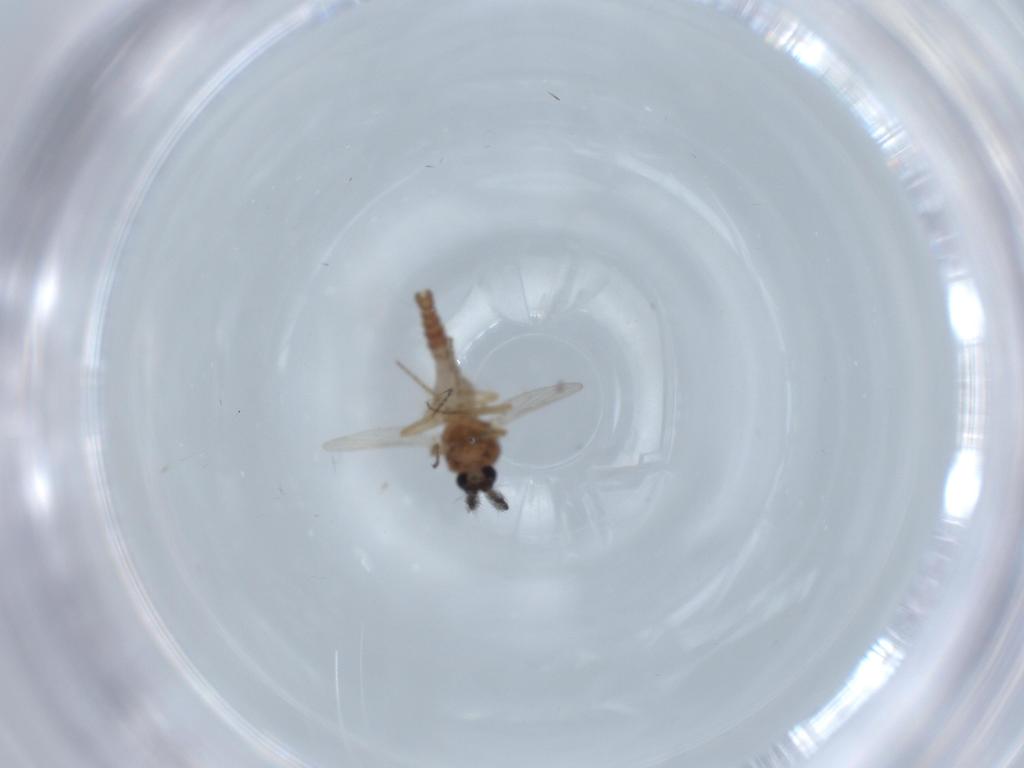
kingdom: Animalia
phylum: Arthropoda
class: Insecta
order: Diptera
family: Ceratopogonidae
